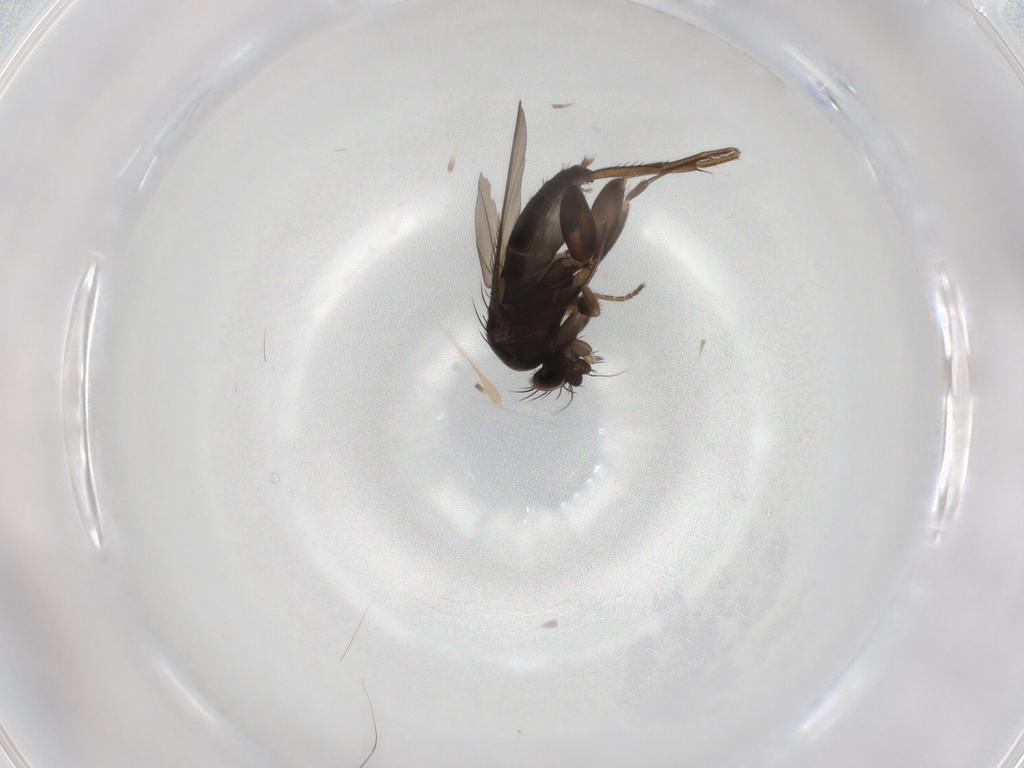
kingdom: Animalia
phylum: Arthropoda
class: Insecta
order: Diptera
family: Phoridae
